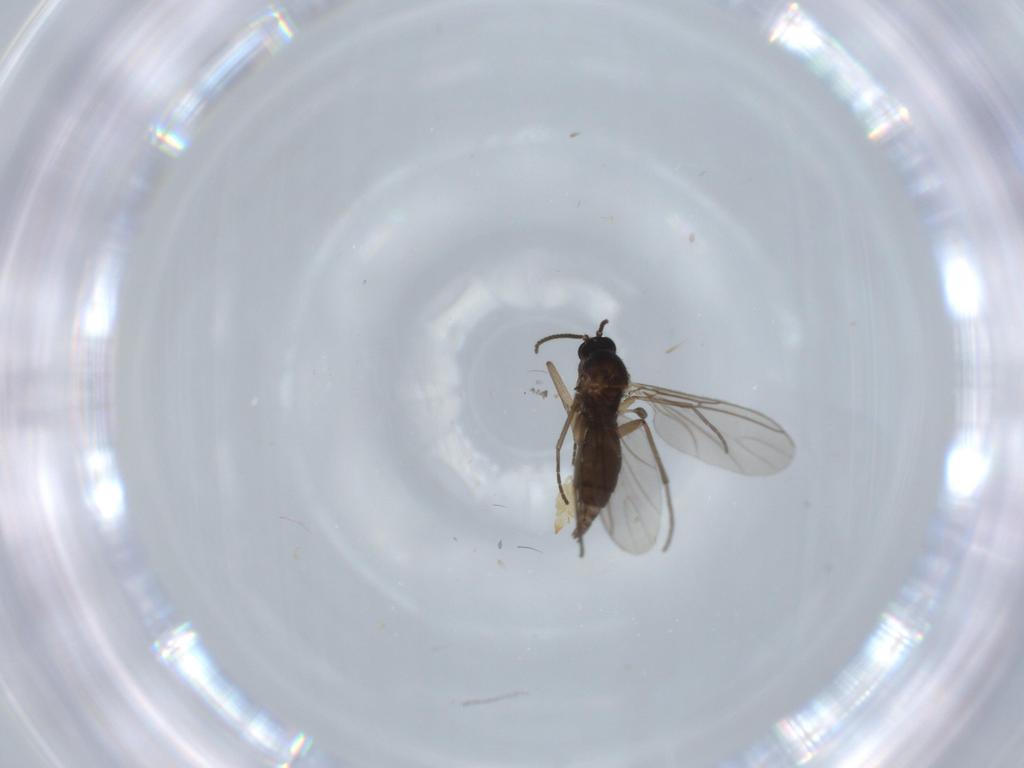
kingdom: Animalia
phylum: Arthropoda
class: Insecta
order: Diptera
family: Sciaridae
